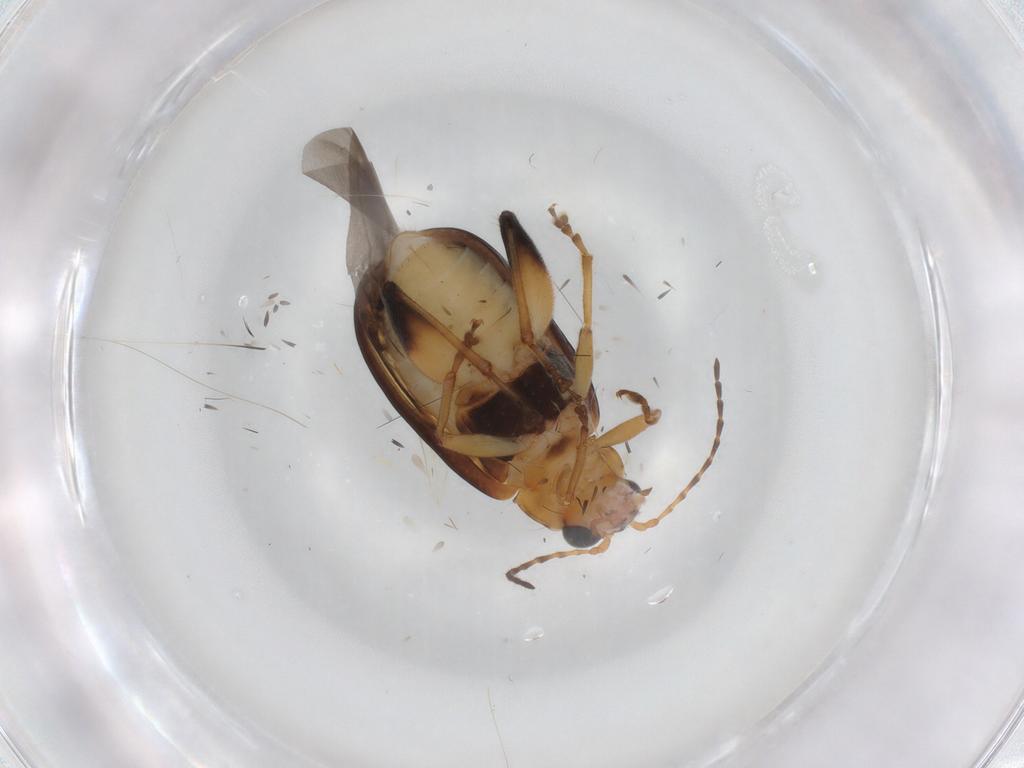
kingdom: Animalia
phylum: Arthropoda
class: Insecta
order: Coleoptera
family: Chrysomelidae
